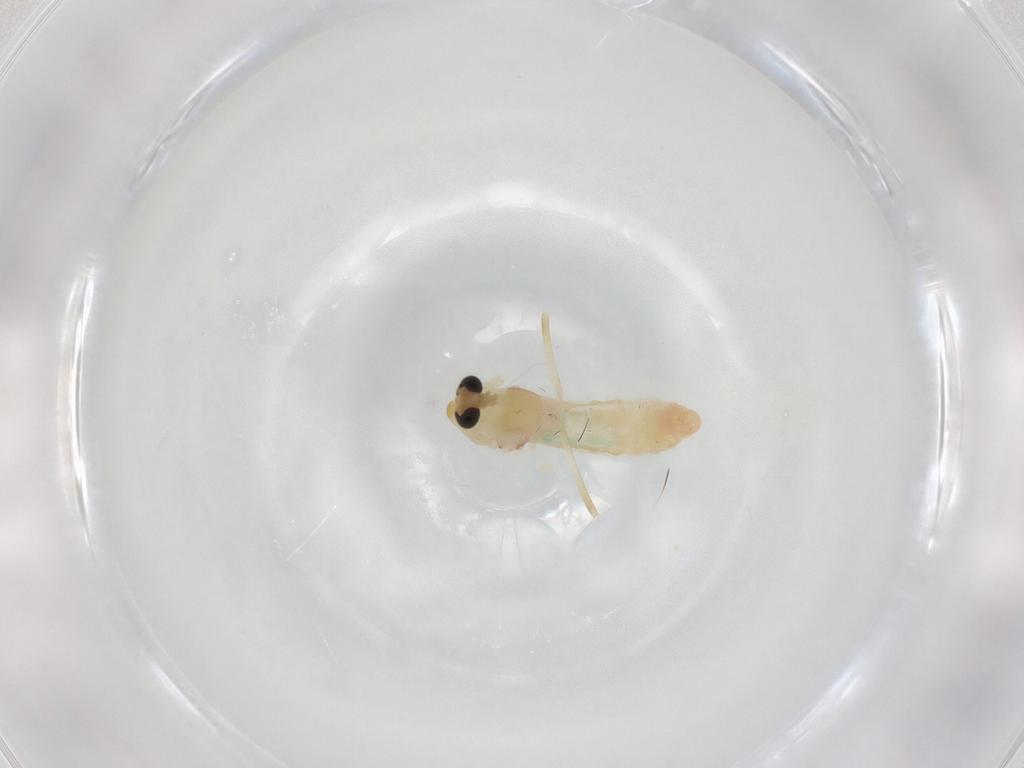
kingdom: Animalia
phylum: Arthropoda
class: Insecta
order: Diptera
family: Chironomidae
